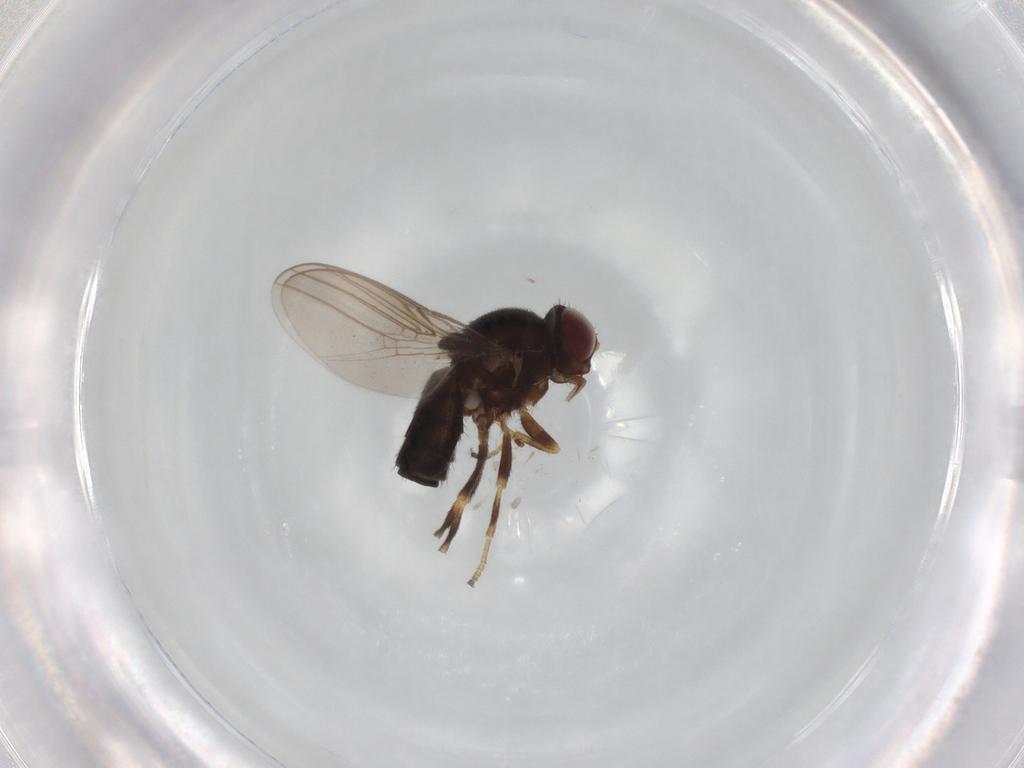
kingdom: Animalia
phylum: Arthropoda
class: Insecta
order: Diptera
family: Chloropidae
